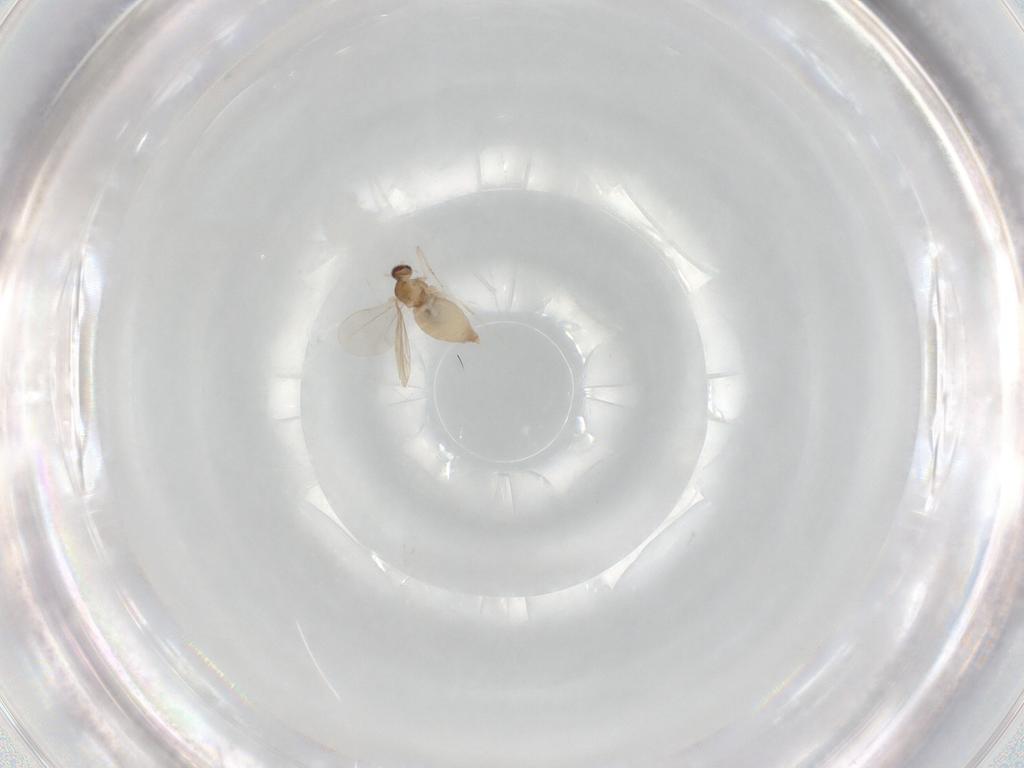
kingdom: Animalia
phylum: Arthropoda
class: Insecta
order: Diptera
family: Cecidomyiidae
